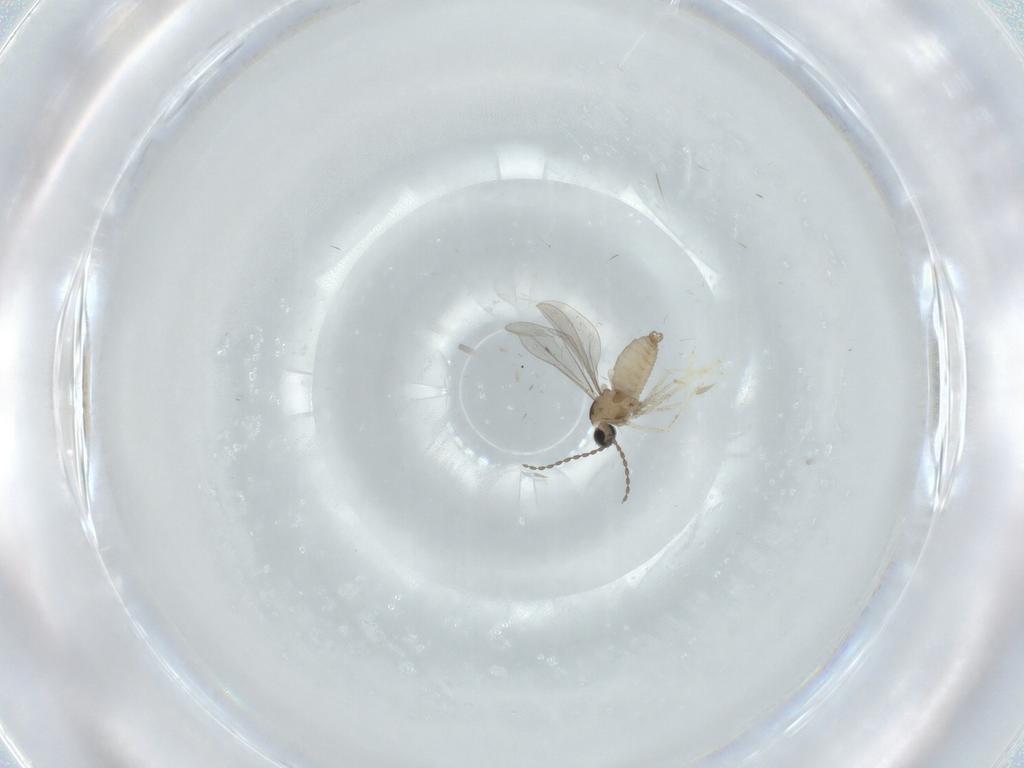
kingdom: Animalia
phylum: Arthropoda
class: Insecta
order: Diptera
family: Cecidomyiidae
